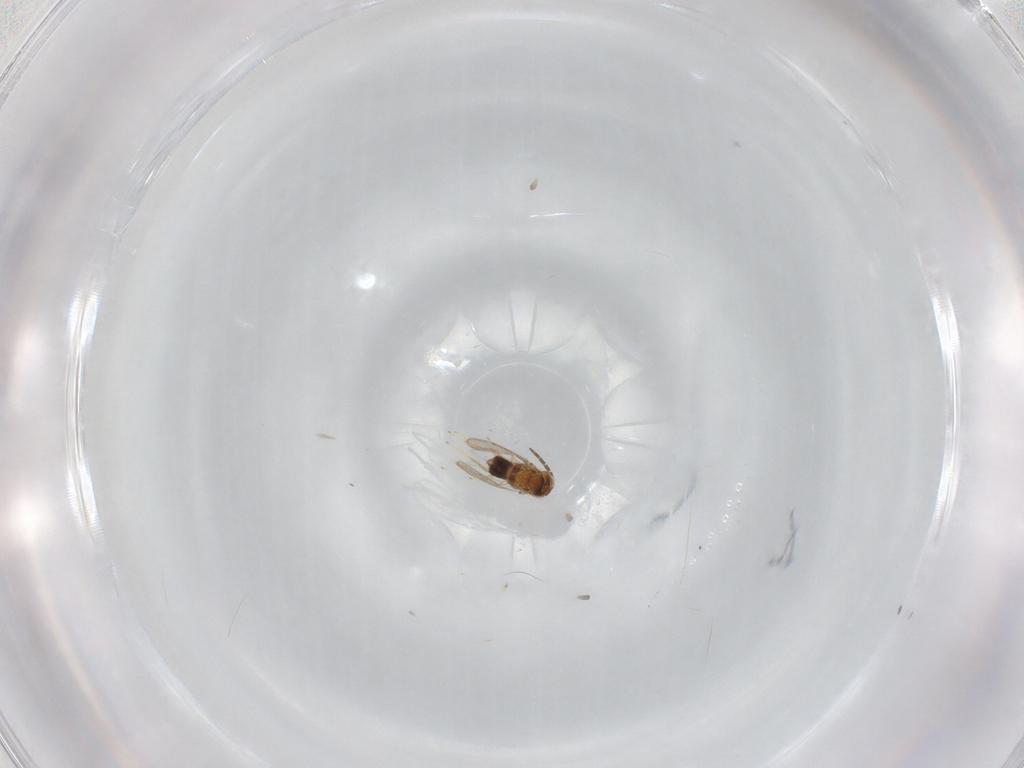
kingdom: Animalia
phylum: Arthropoda
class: Insecta
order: Hymenoptera
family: Aphelinidae
